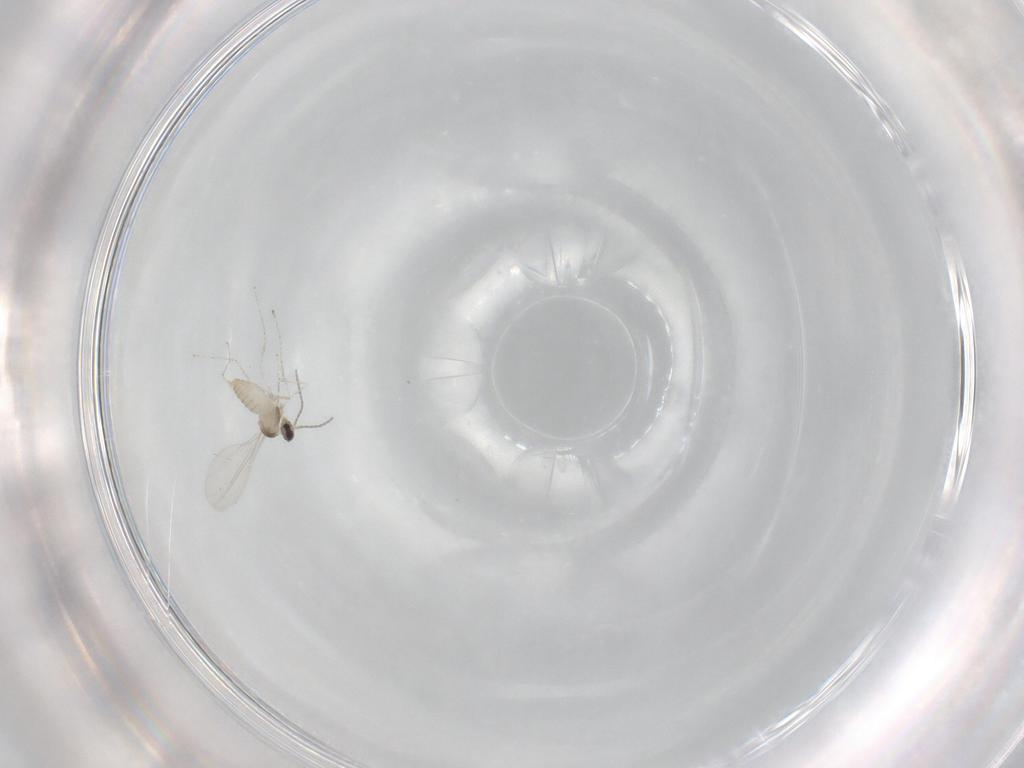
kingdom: Animalia
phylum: Arthropoda
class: Insecta
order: Diptera
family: Cecidomyiidae
